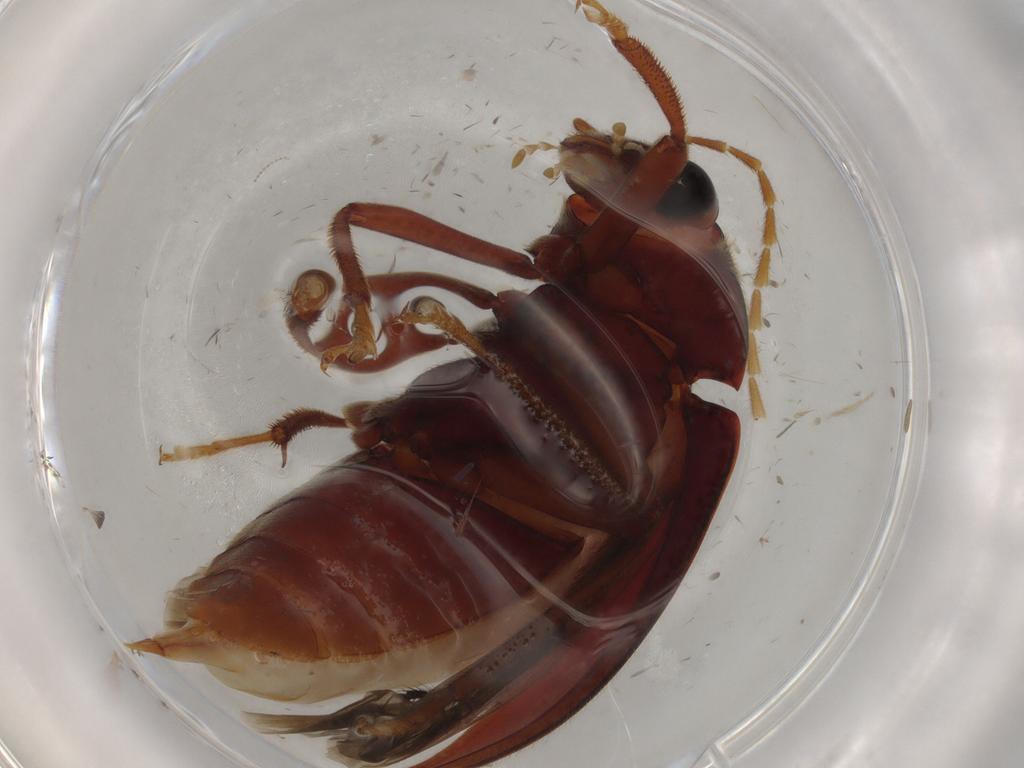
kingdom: Animalia
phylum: Arthropoda
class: Insecta
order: Coleoptera
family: Ptilodactylidae
